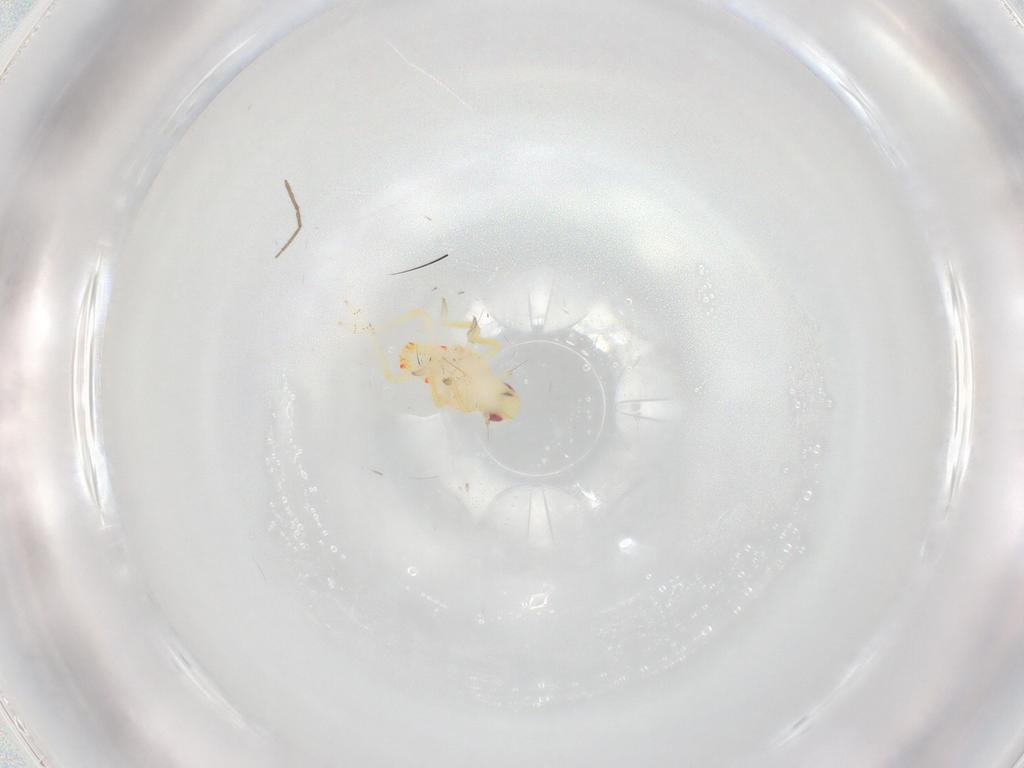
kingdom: Animalia
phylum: Arthropoda
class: Insecta
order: Hemiptera
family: Tropiduchidae
